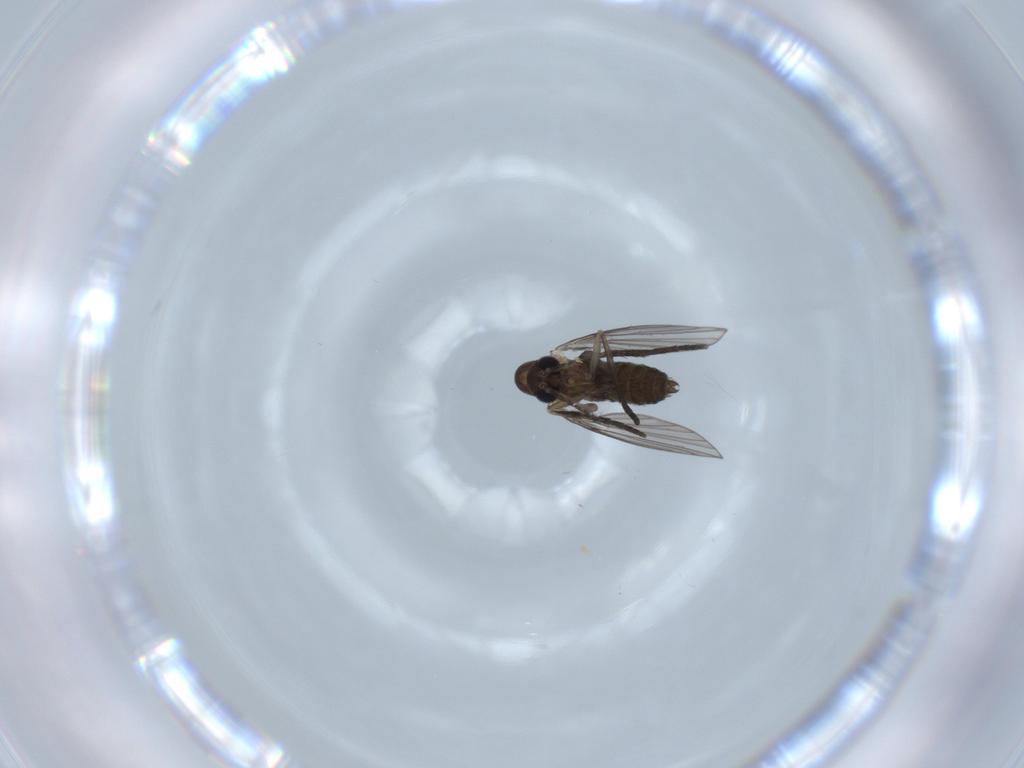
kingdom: Animalia
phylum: Arthropoda
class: Insecta
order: Diptera
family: Psychodidae
